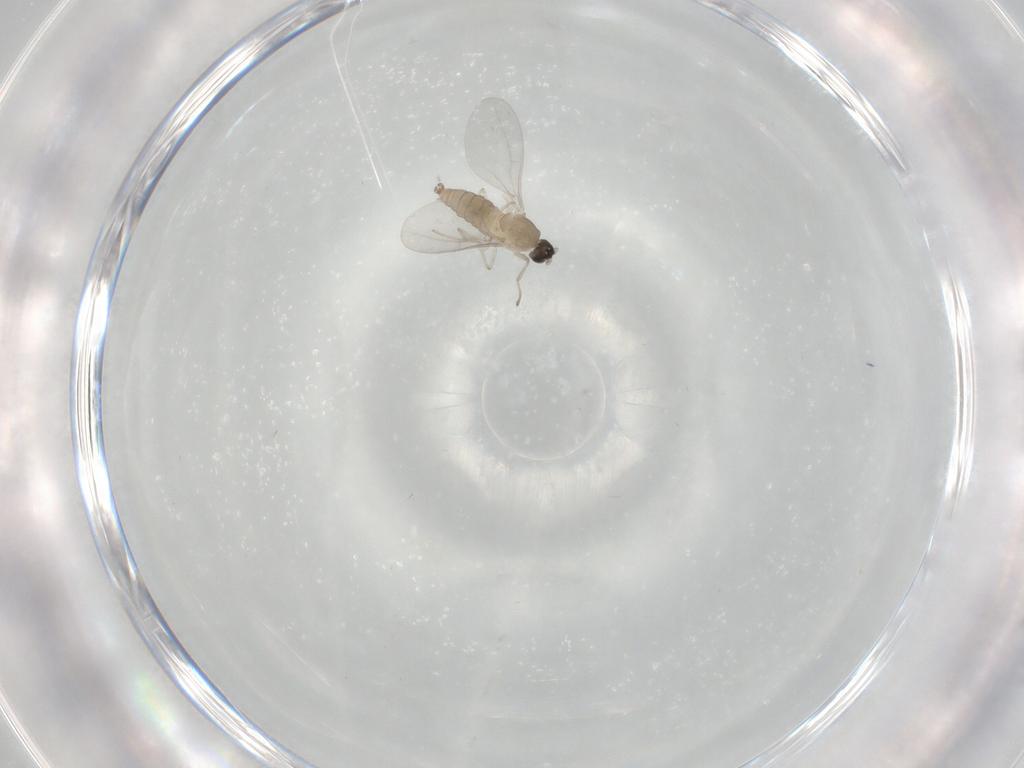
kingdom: Animalia
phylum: Arthropoda
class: Insecta
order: Diptera
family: Cecidomyiidae
